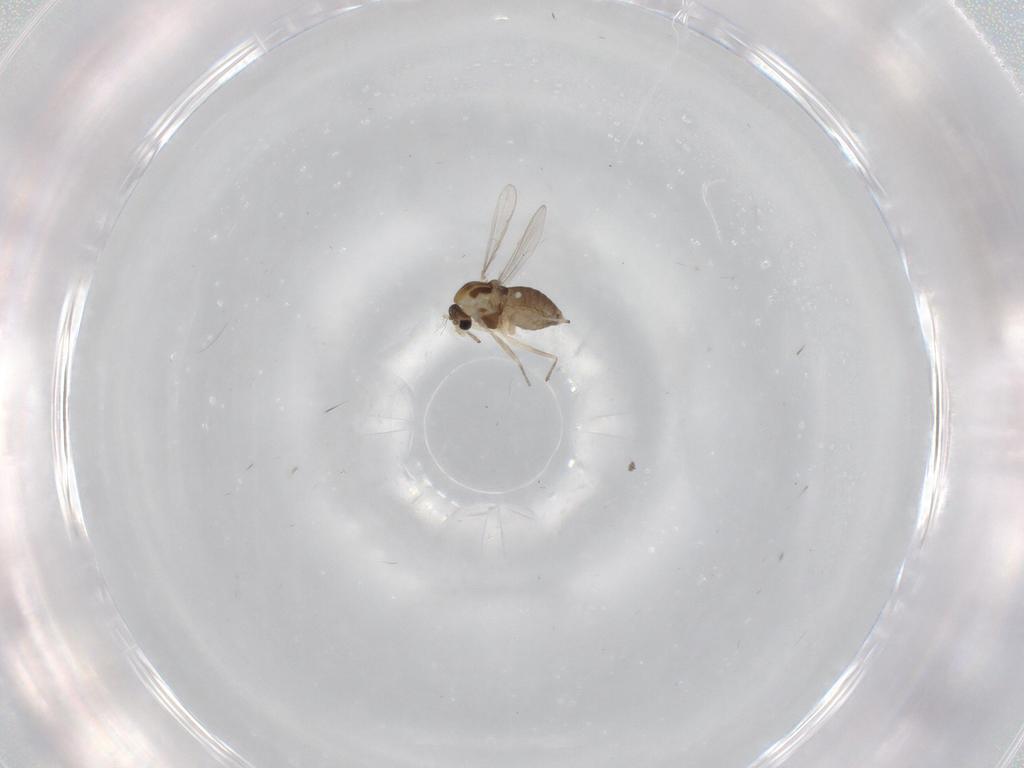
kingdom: Animalia
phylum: Arthropoda
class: Insecta
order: Diptera
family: Chironomidae
